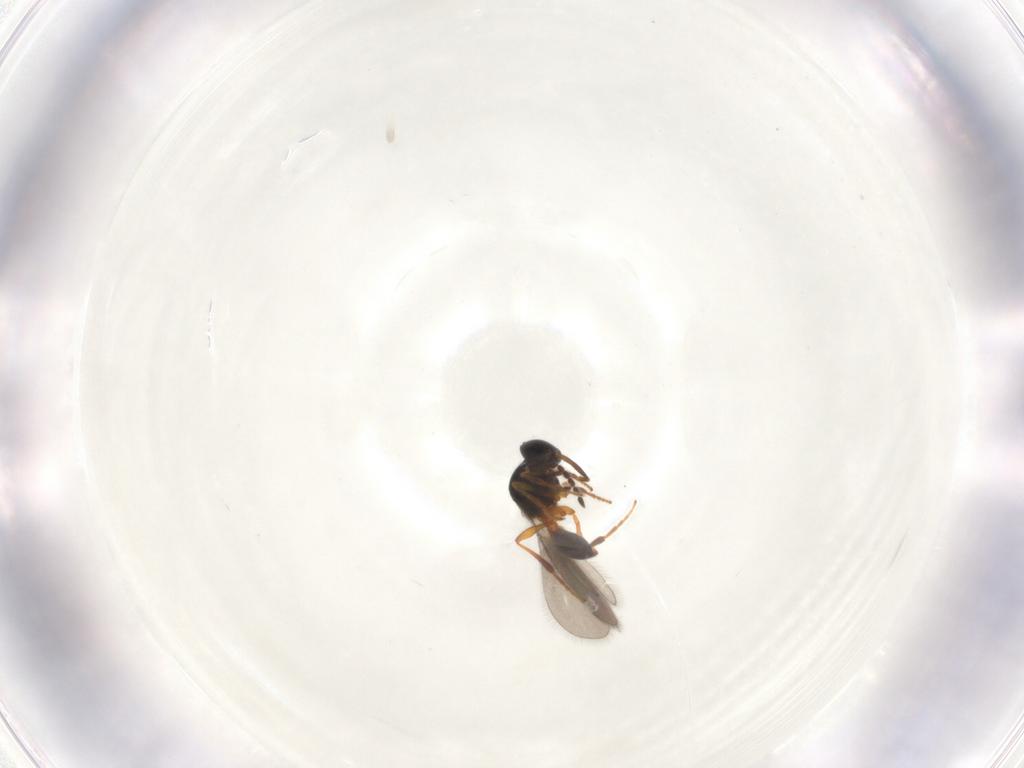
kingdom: Animalia
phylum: Arthropoda
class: Insecta
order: Hymenoptera
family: Platygastridae
